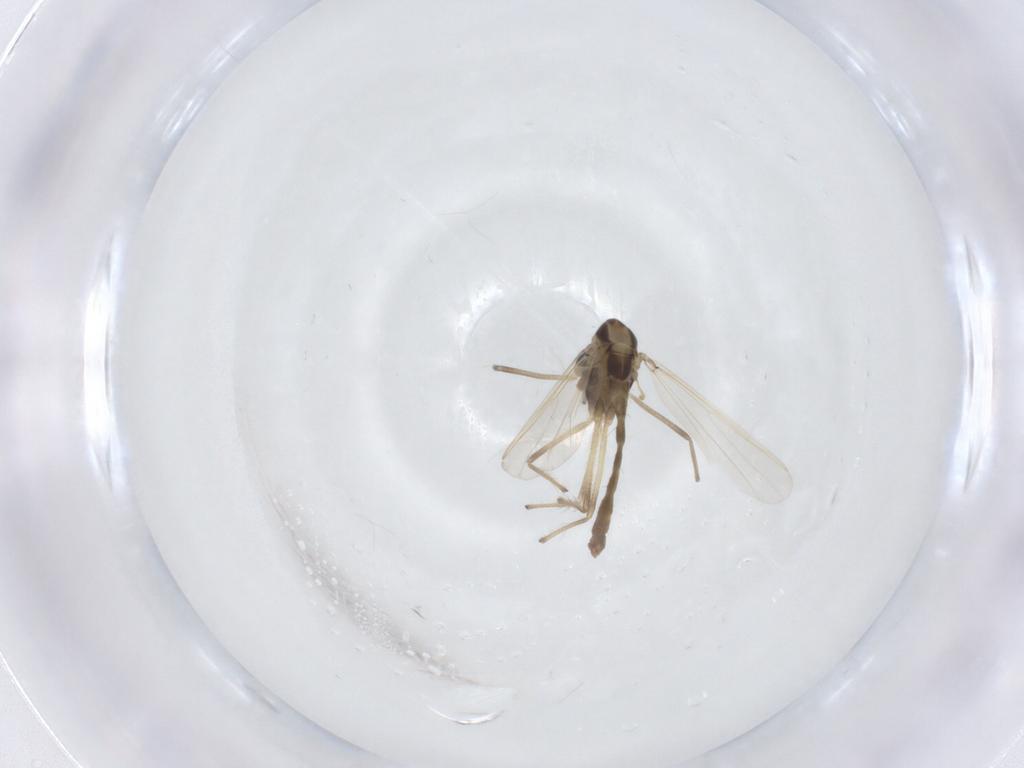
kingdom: Animalia
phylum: Arthropoda
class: Insecta
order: Diptera
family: Chironomidae
